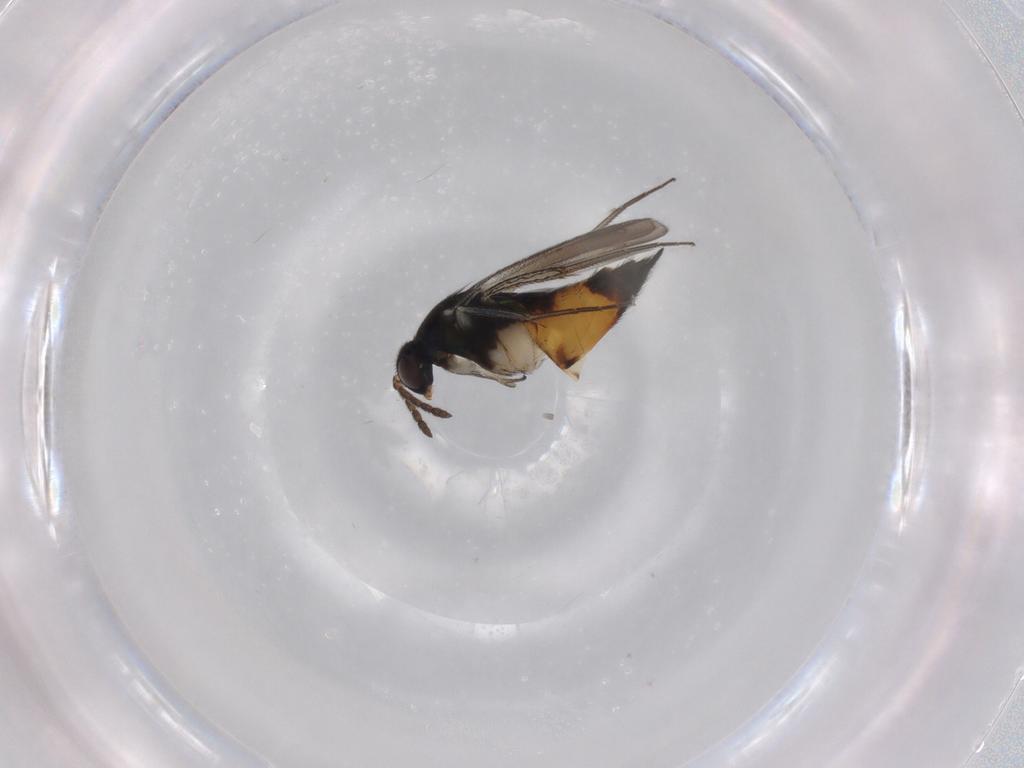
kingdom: Animalia
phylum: Arthropoda
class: Insecta
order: Hymenoptera
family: Eulophidae
